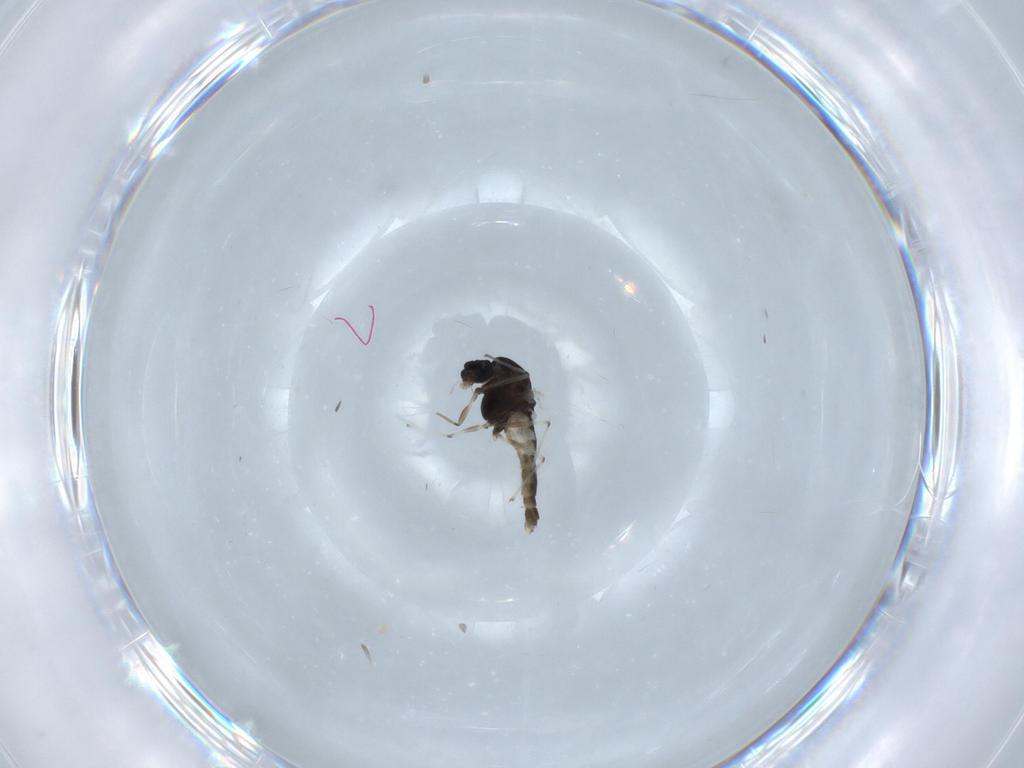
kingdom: Animalia
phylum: Arthropoda
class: Insecta
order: Diptera
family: Chironomidae
